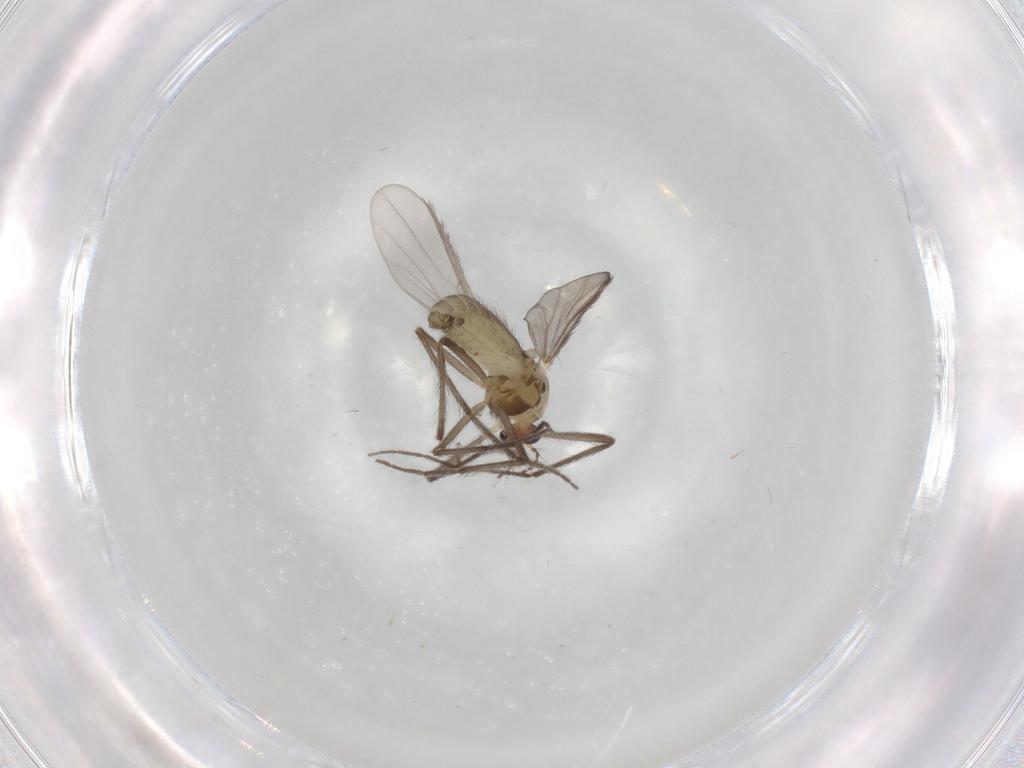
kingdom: Animalia
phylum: Arthropoda
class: Insecta
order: Diptera
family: Chironomidae
